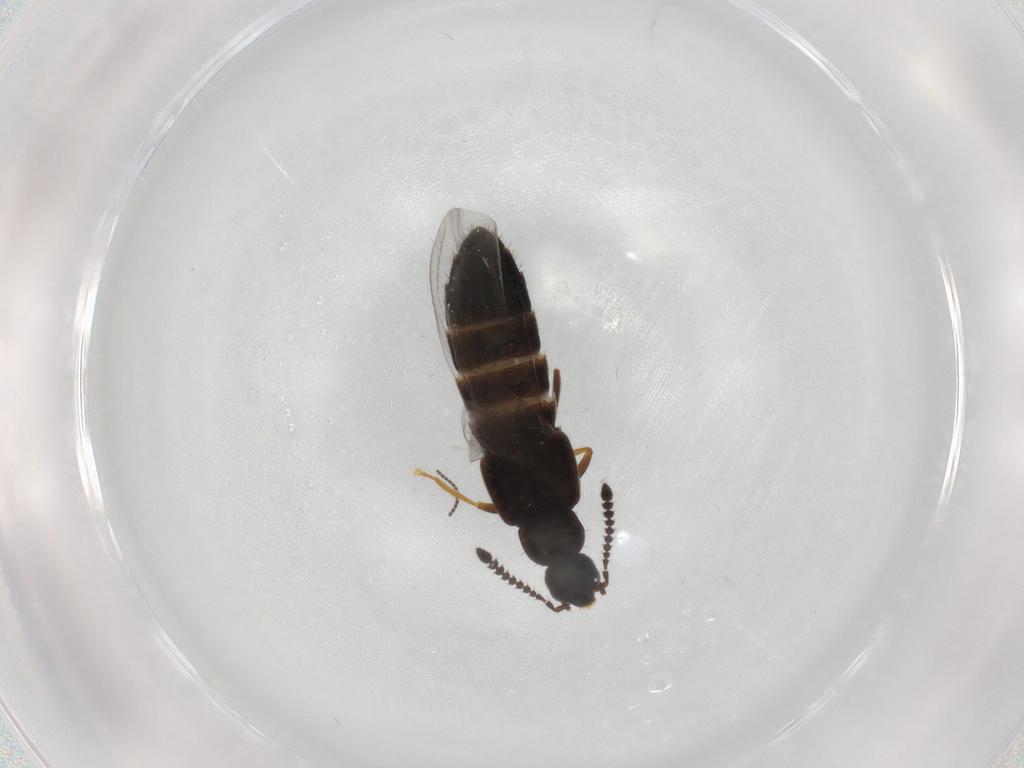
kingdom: Animalia
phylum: Arthropoda
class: Insecta
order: Coleoptera
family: Staphylinidae
